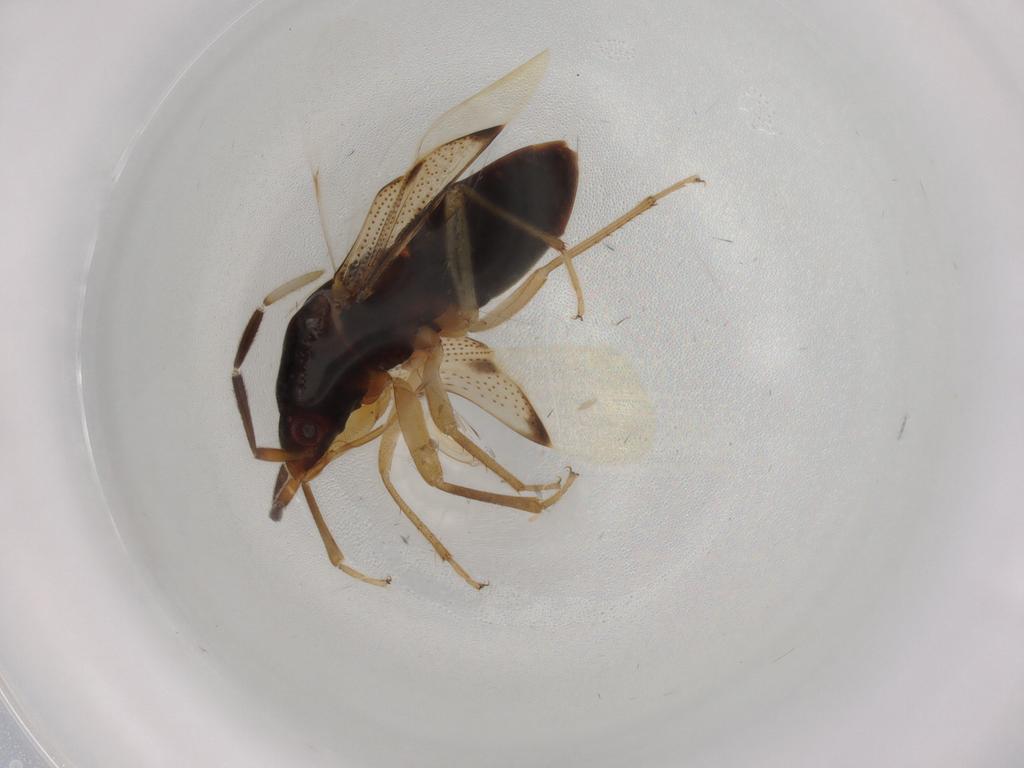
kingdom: Animalia
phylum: Arthropoda
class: Insecta
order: Hemiptera
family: Rhyparochromidae
